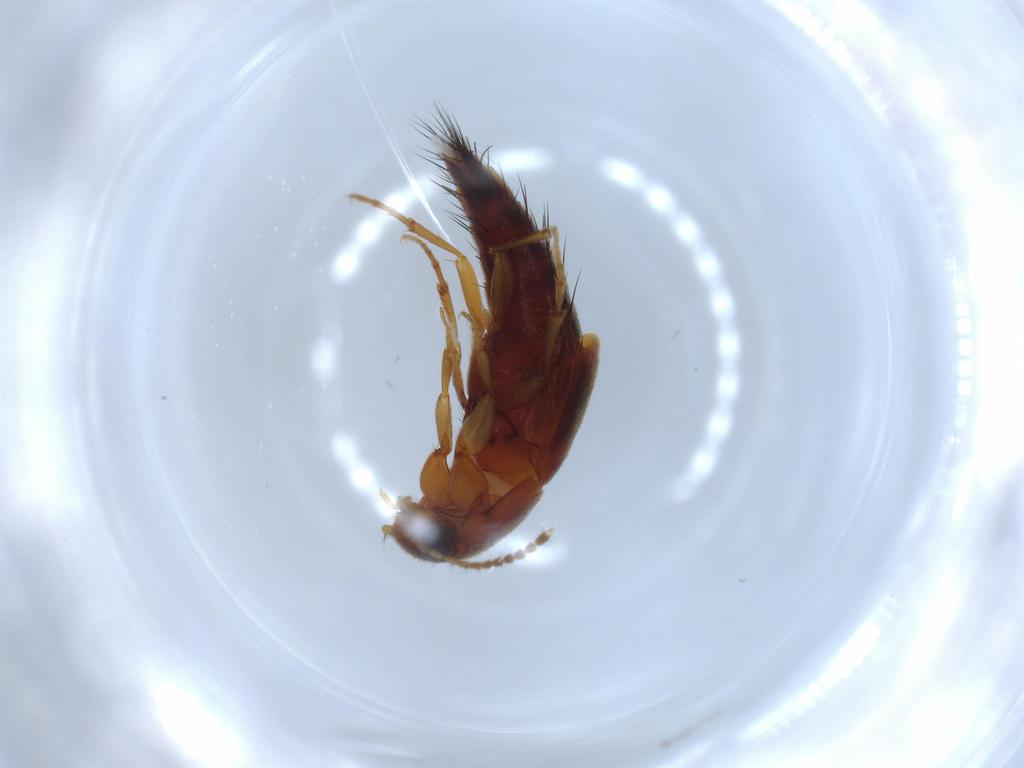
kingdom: Animalia
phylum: Arthropoda
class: Insecta
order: Coleoptera
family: Staphylinidae
